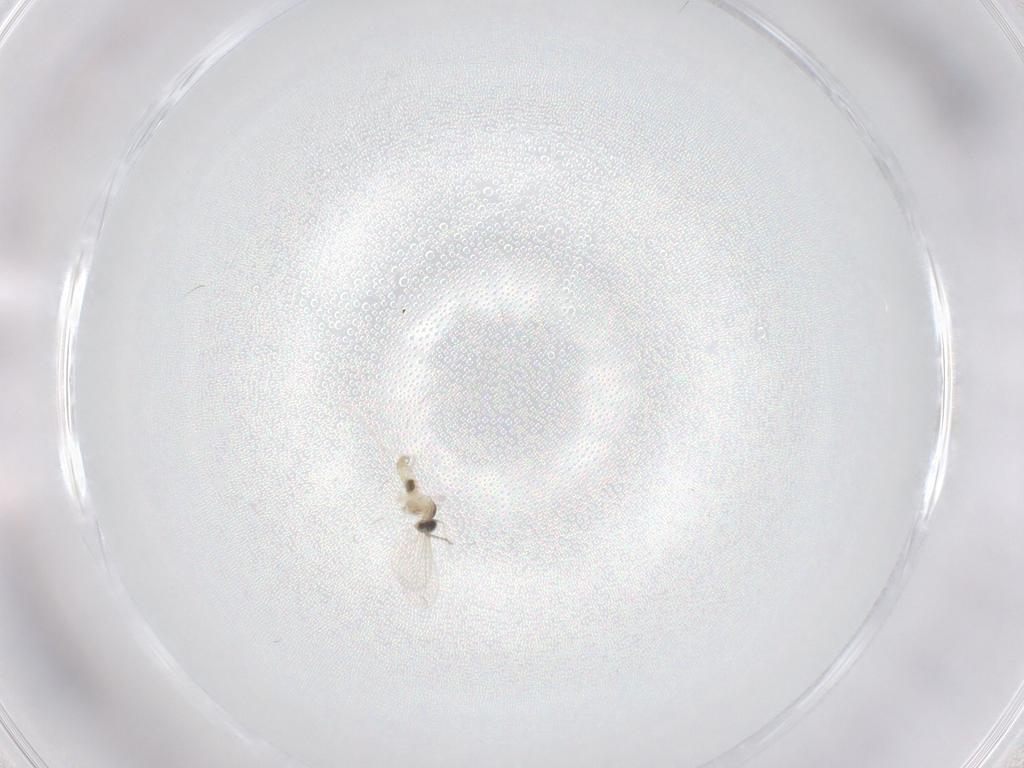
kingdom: Animalia
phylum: Arthropoda
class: Insecta
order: Diptera
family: Cecidomyiidae
